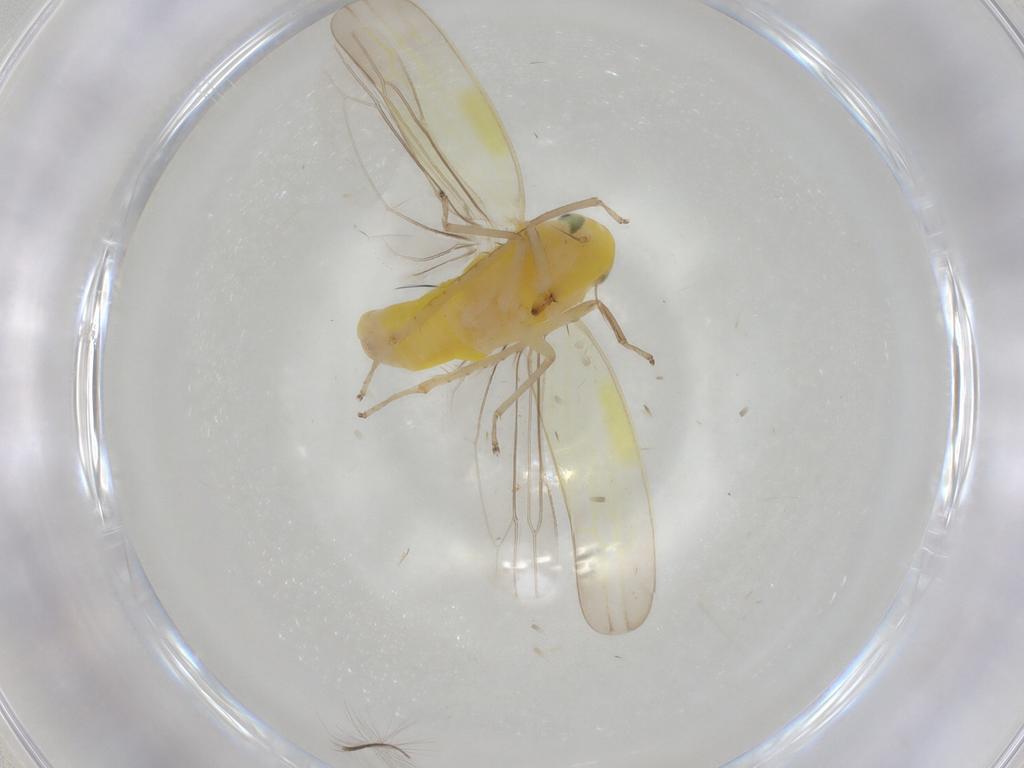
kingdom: Animalia
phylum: Arthropoda
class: Insecta
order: Hemiptera
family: Cicadellidae
